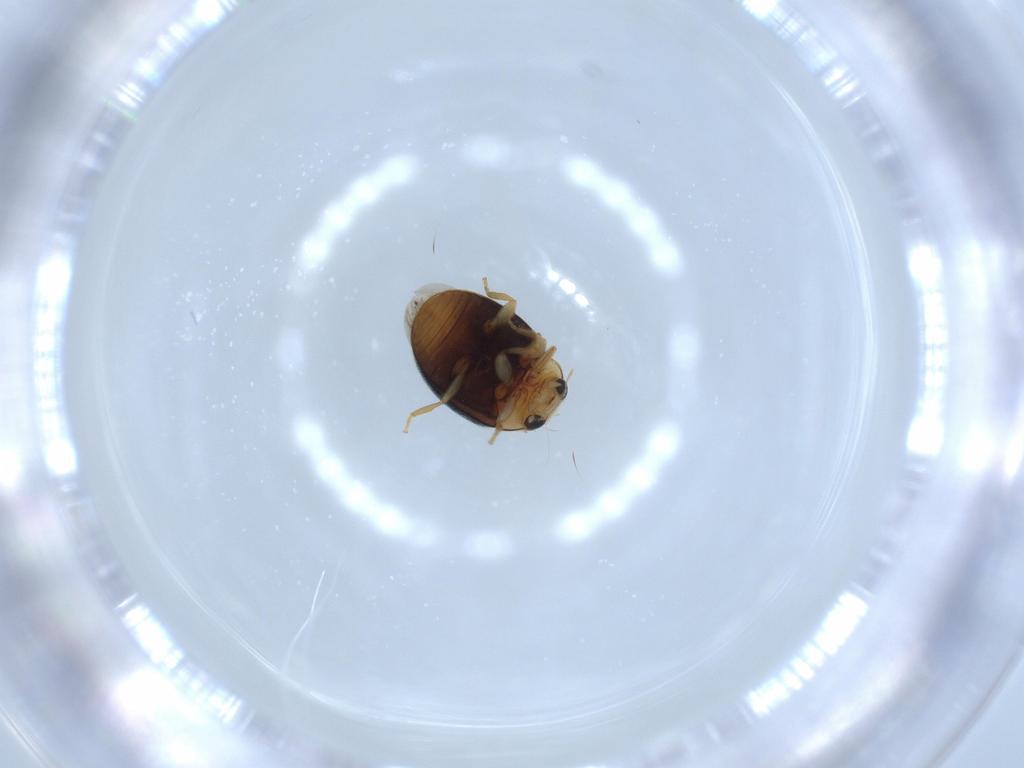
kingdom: Animalia
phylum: Arthropoda
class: Insecta
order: Coleoptera
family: Coccinellidae
